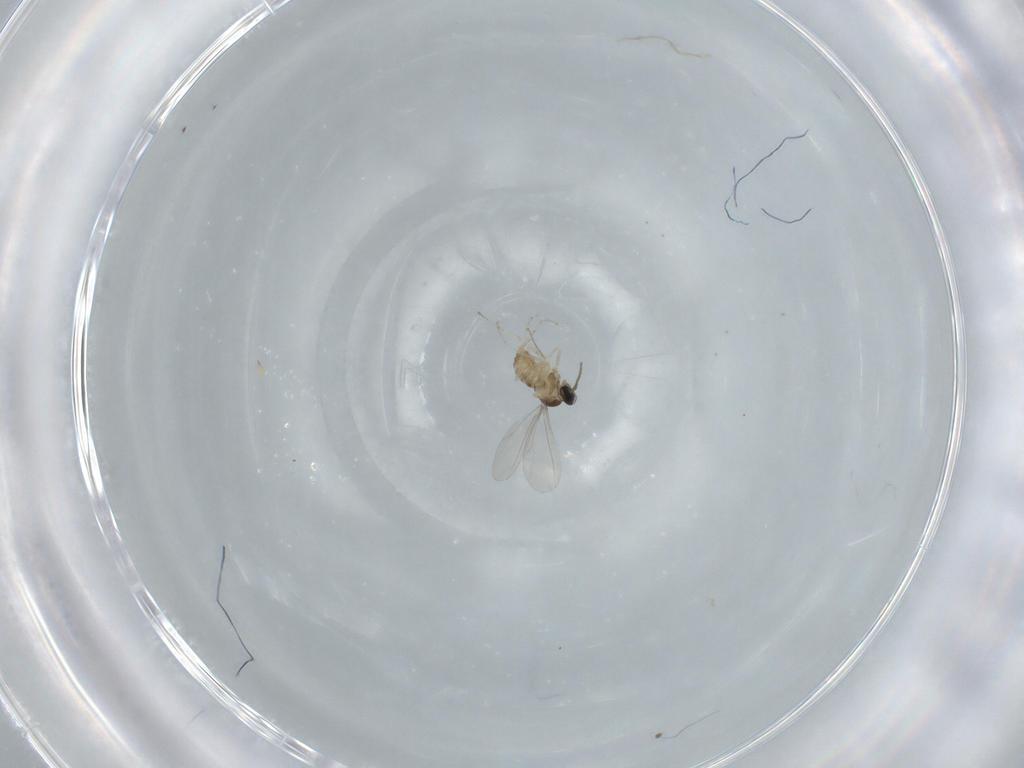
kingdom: Animalia
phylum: Arthropoda
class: Insecta
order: Diptera
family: Cecidomyiidae
